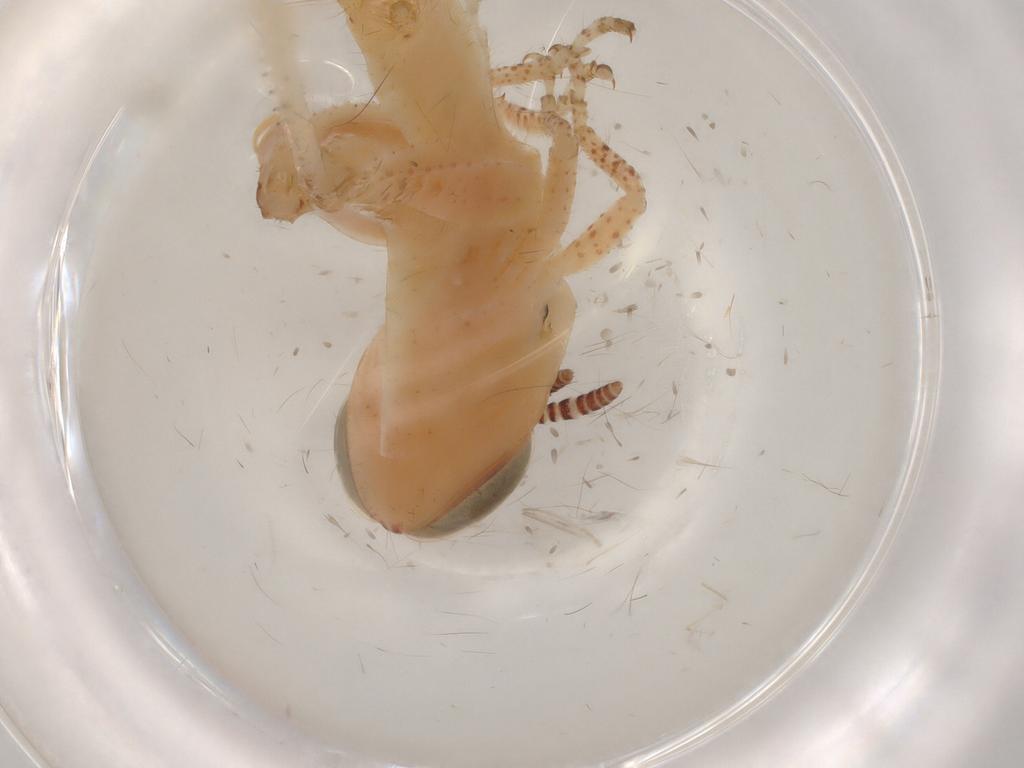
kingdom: Animalia
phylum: Arthropoda
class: Insecta
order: Orthoptera
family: Acrididae
